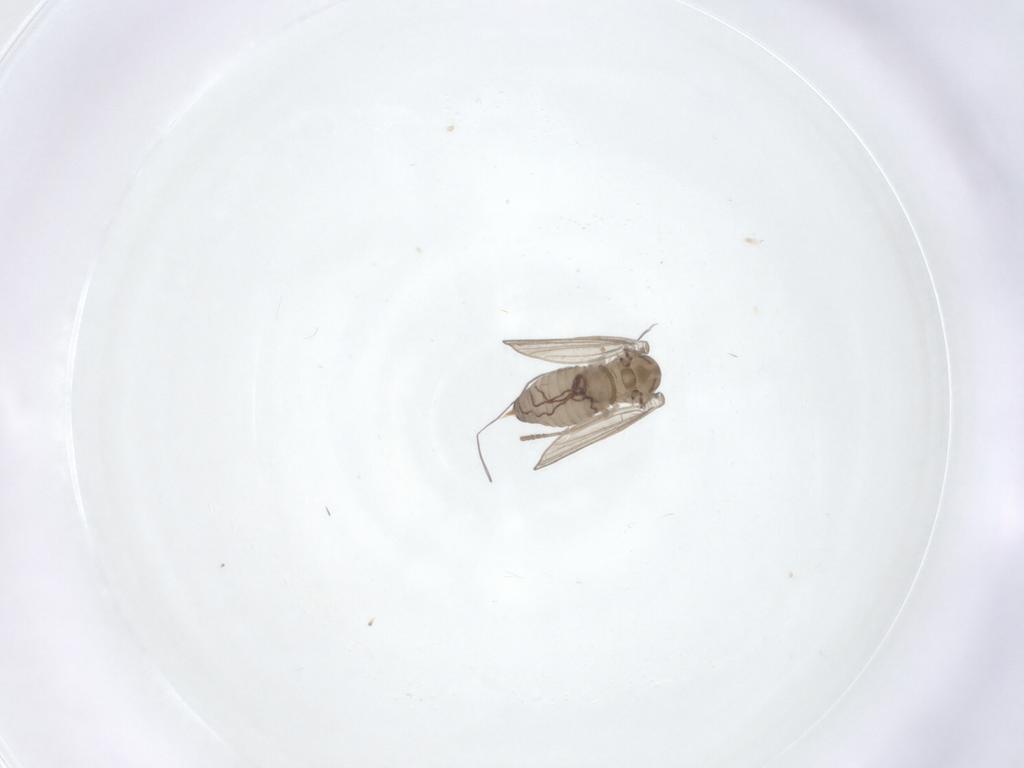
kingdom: Animalia
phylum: Arthropoda
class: Insecta
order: Diptera
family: Psychodidae
